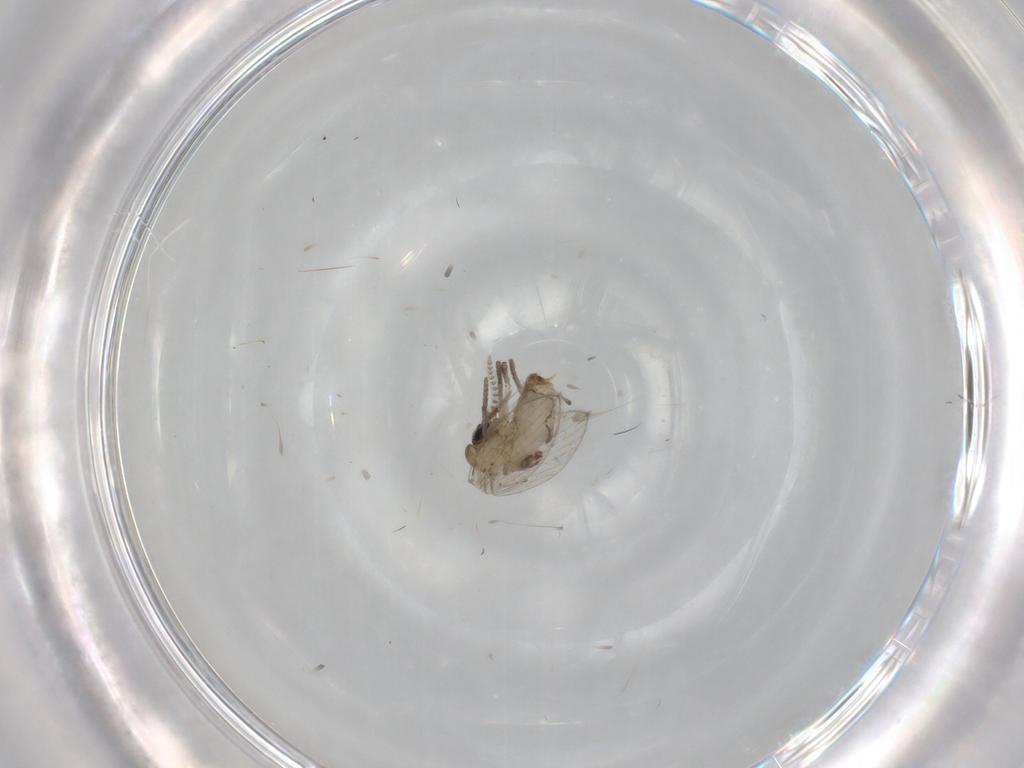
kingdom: Animalia
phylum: Arthropoda
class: Insecta
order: Diptera
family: Psychodidae
